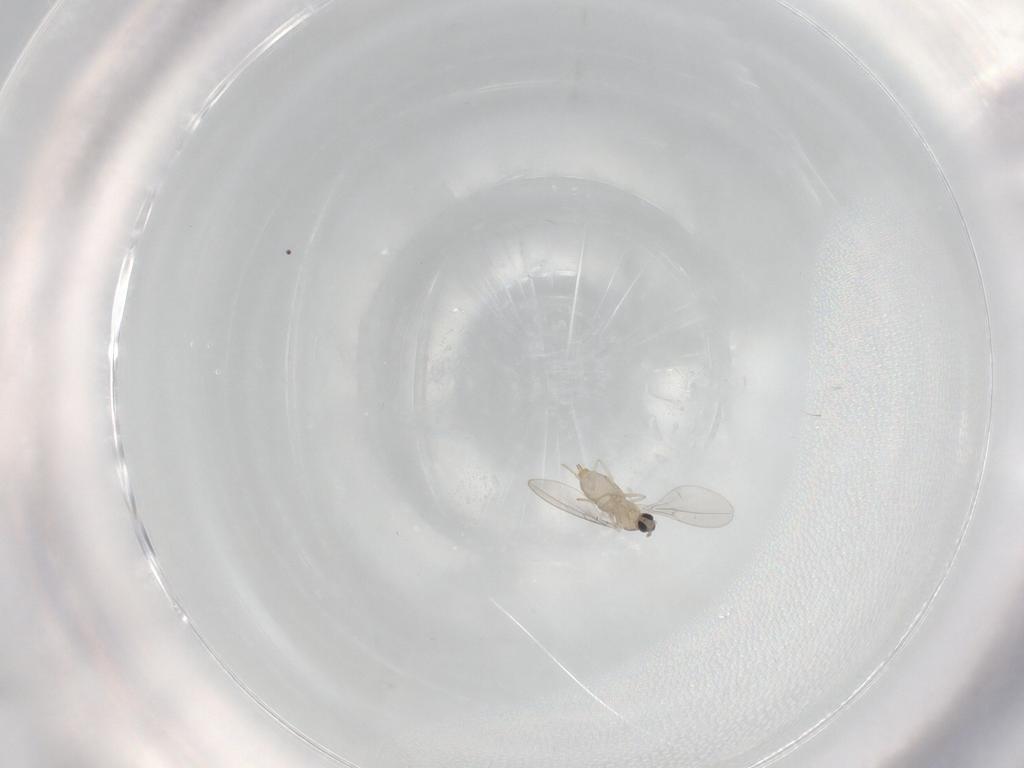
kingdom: Animalia
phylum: Arthropoda
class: Insecta
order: Diptera
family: Cecidomyiidae
